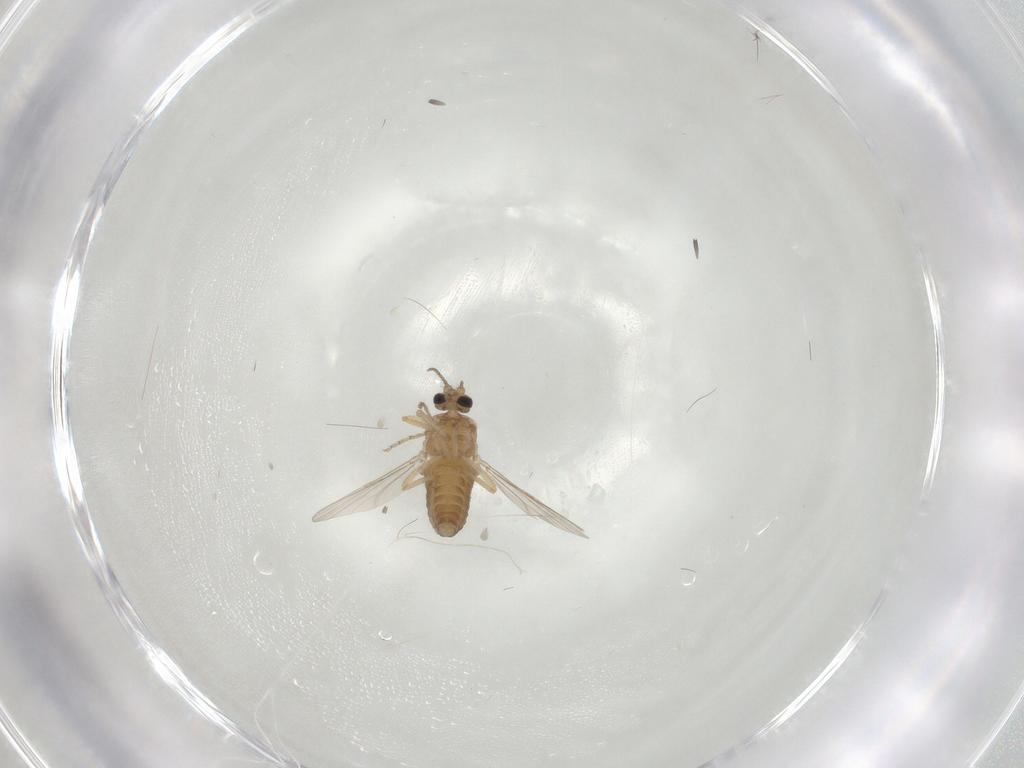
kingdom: Animalia
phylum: Arthropoda
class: Insecta
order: Diptera
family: Ceratopogonidae
